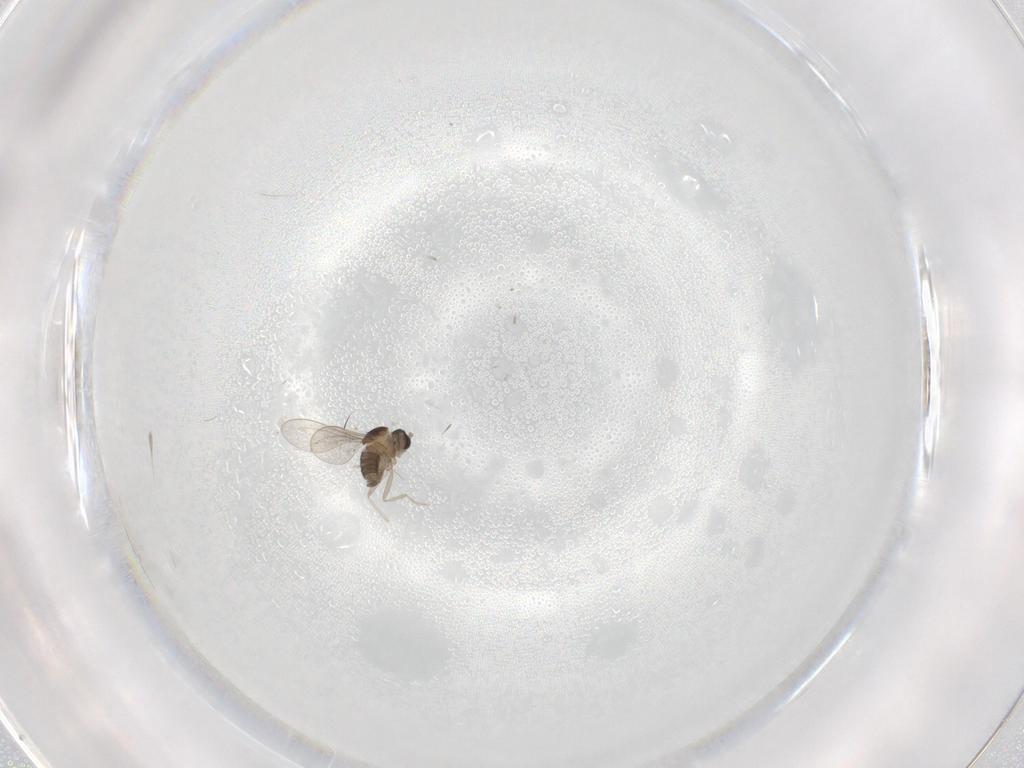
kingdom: Animalia
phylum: Arthropoda
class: Insecta
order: Diptera
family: Cecidomyiidae
